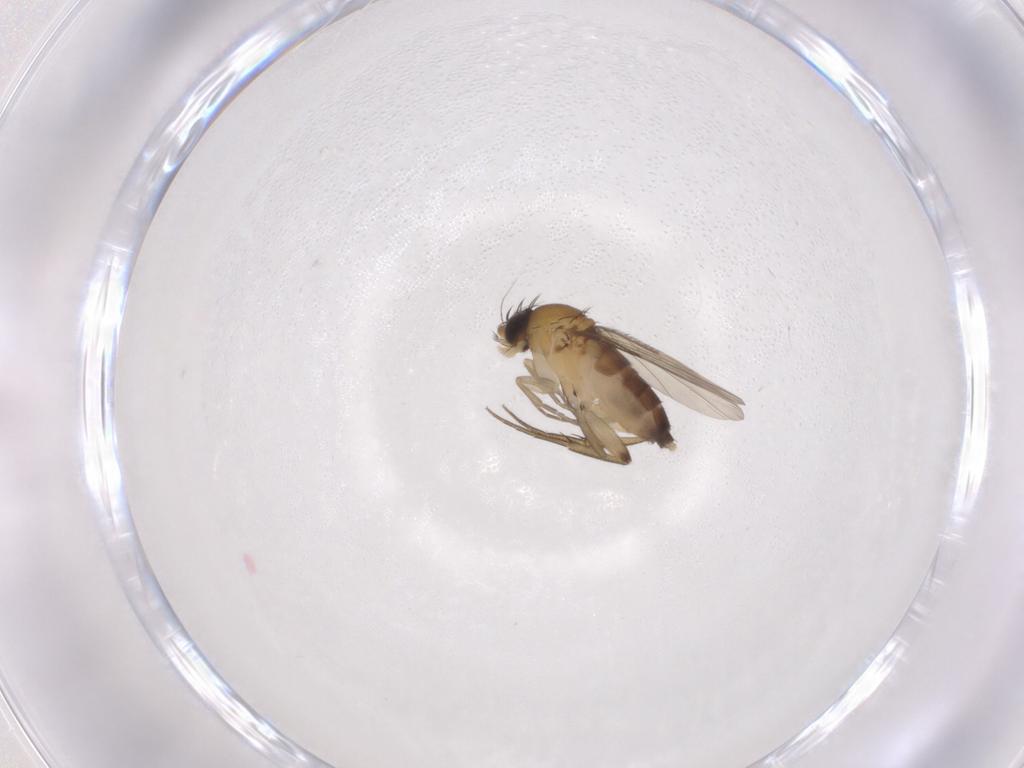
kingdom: Animalia
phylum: Arthropoda
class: Insecta
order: Diptera
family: Phoridae
